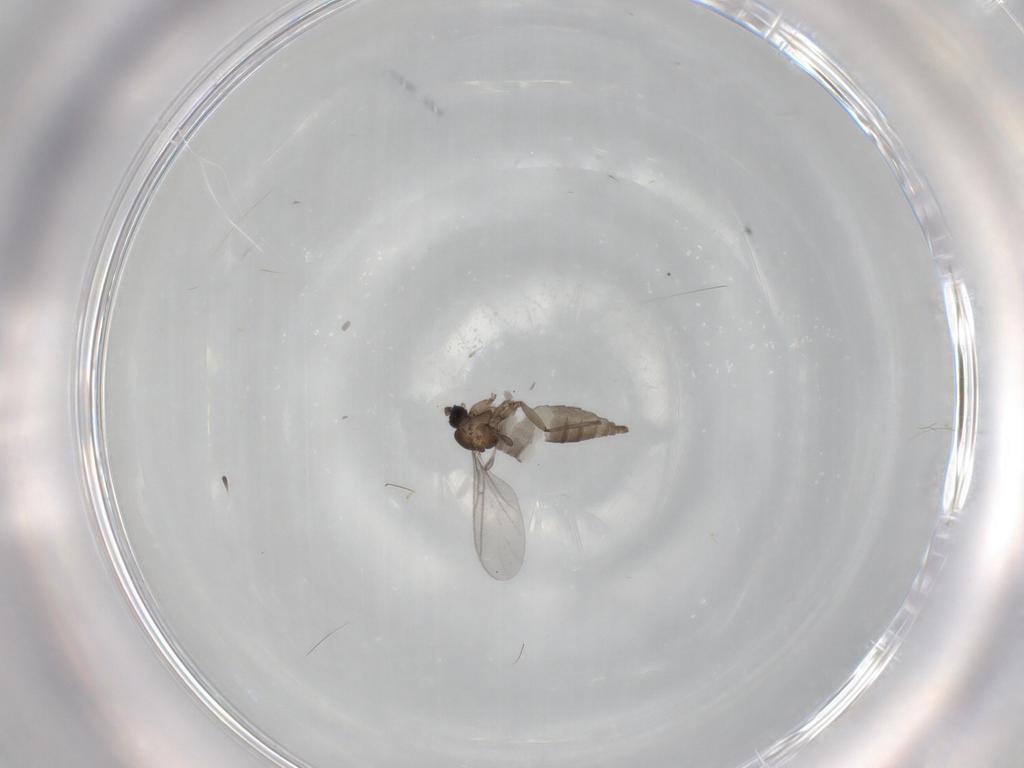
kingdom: Animalia
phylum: Arthropoda
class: Insecta
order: Diptera
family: Sciaridae
